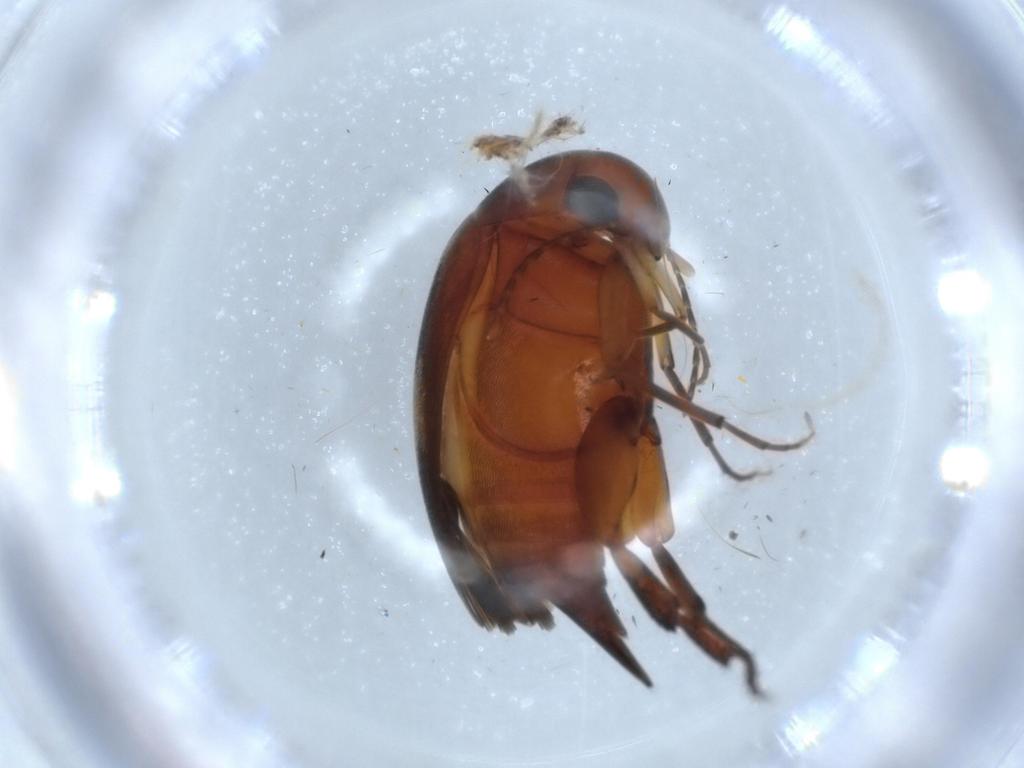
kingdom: Animalia
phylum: Arthropoda
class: Insecta
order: Coleoptera
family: Mordellidae
